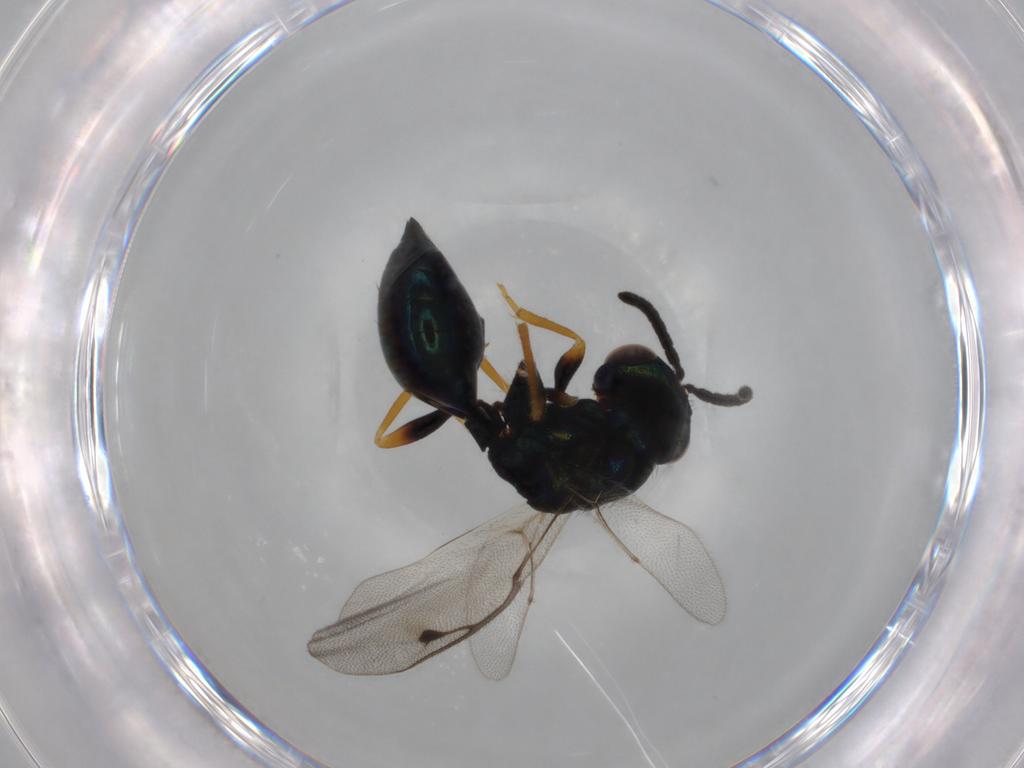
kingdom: Animalia
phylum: Arthropoda
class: Insecta
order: Hymenoptera
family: Pteromalidae
